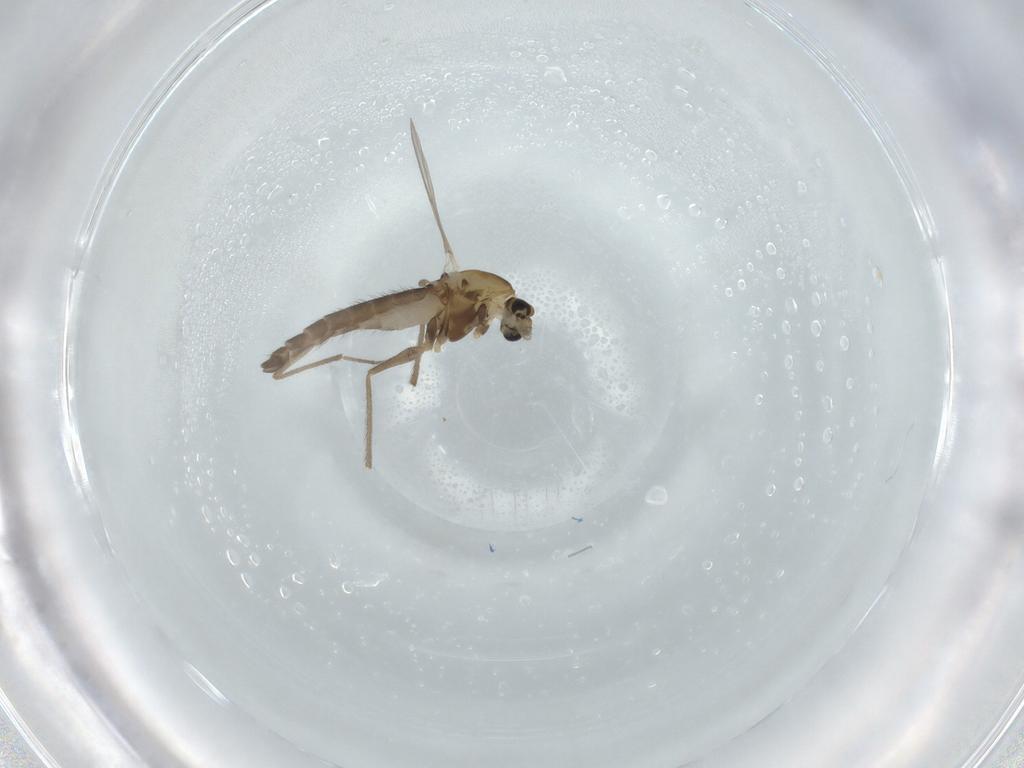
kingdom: Animalia
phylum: Arthropoda
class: Insecta
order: Diptera
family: Chironomidae
